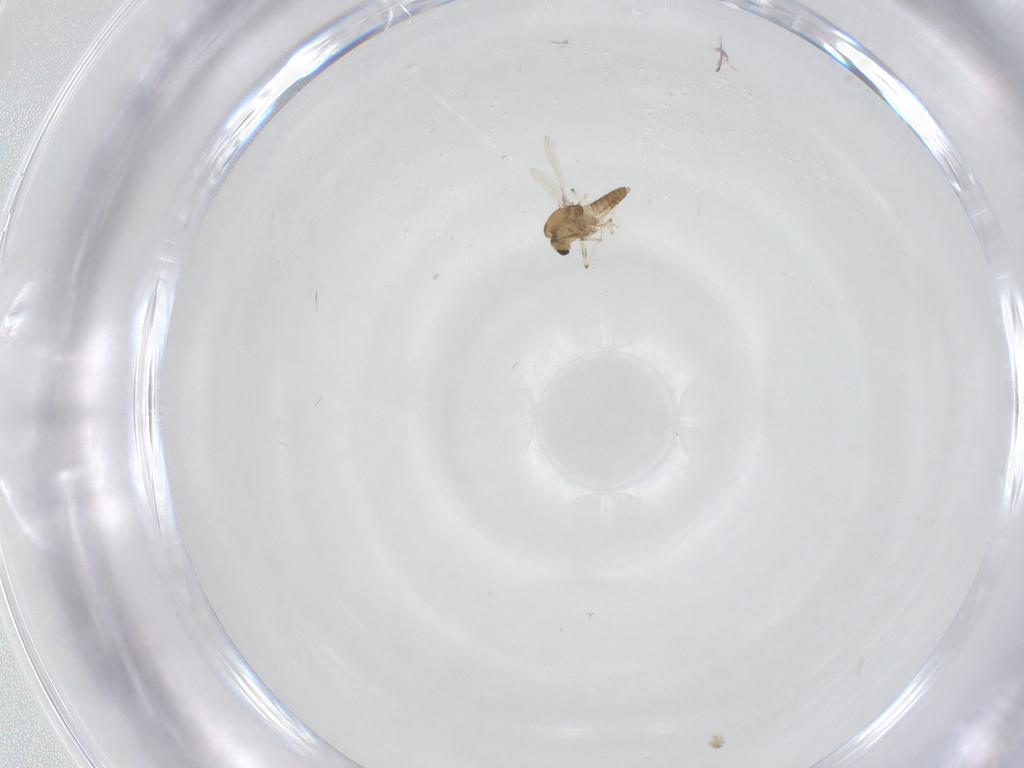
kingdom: Animalia
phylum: Arthropoda
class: Insecta
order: Diptera
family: Chironomidae
